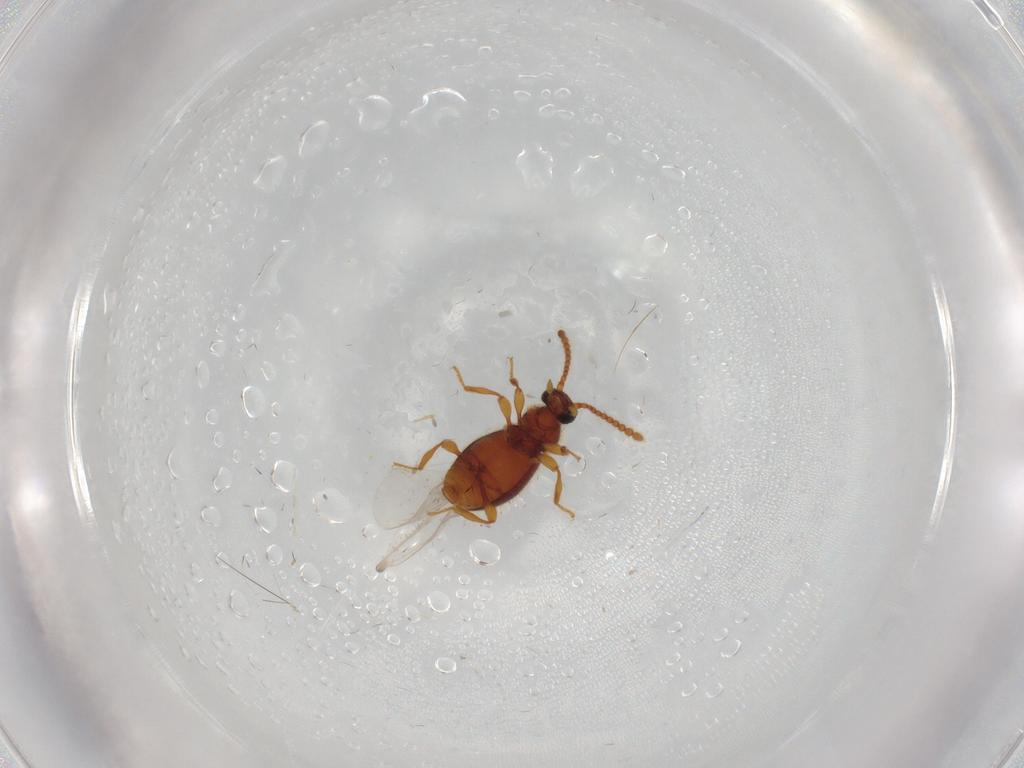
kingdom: Animalia
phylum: Arthropoda
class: Insecta
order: Coleoptera
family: Staphylinidae
